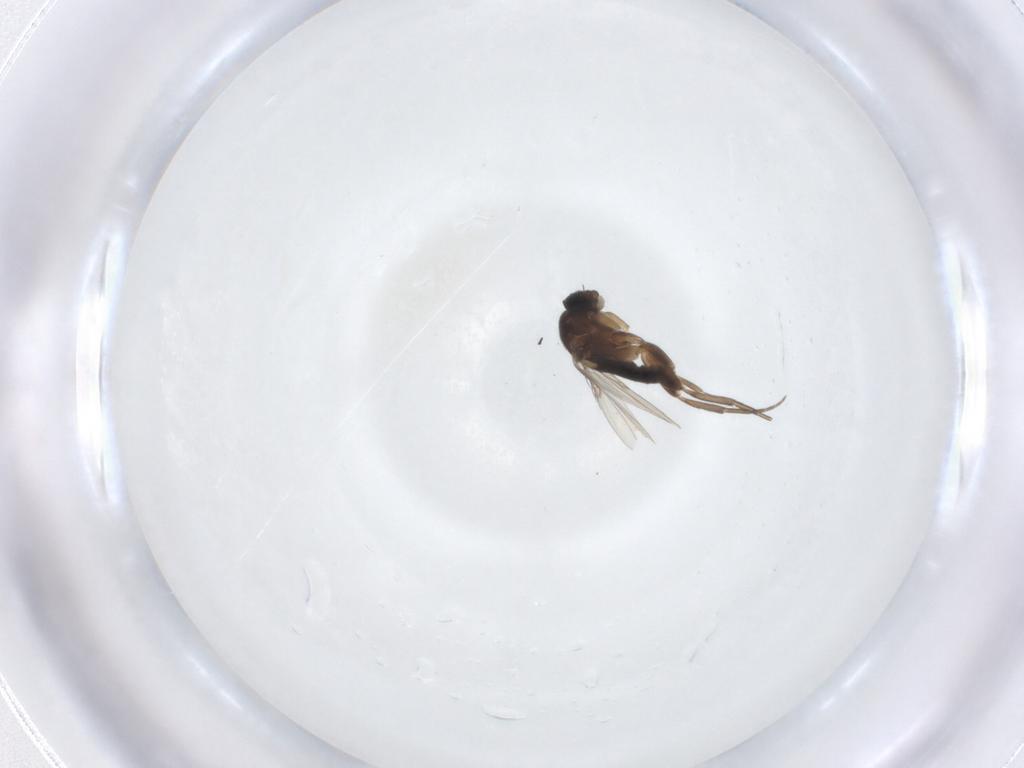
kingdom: Animalia
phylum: Arthropoda
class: Insecta
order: Diptera
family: Phoridae
